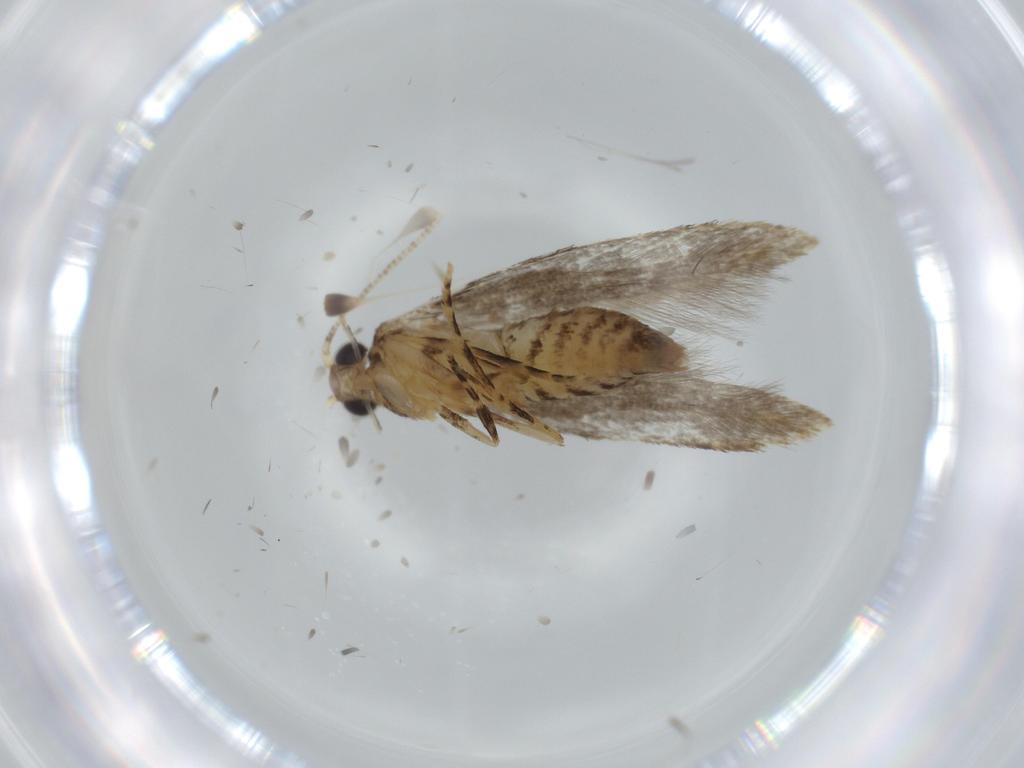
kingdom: Animalia
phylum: Arthropoda
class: Insecta
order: Lepidoptera
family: Tineidae
